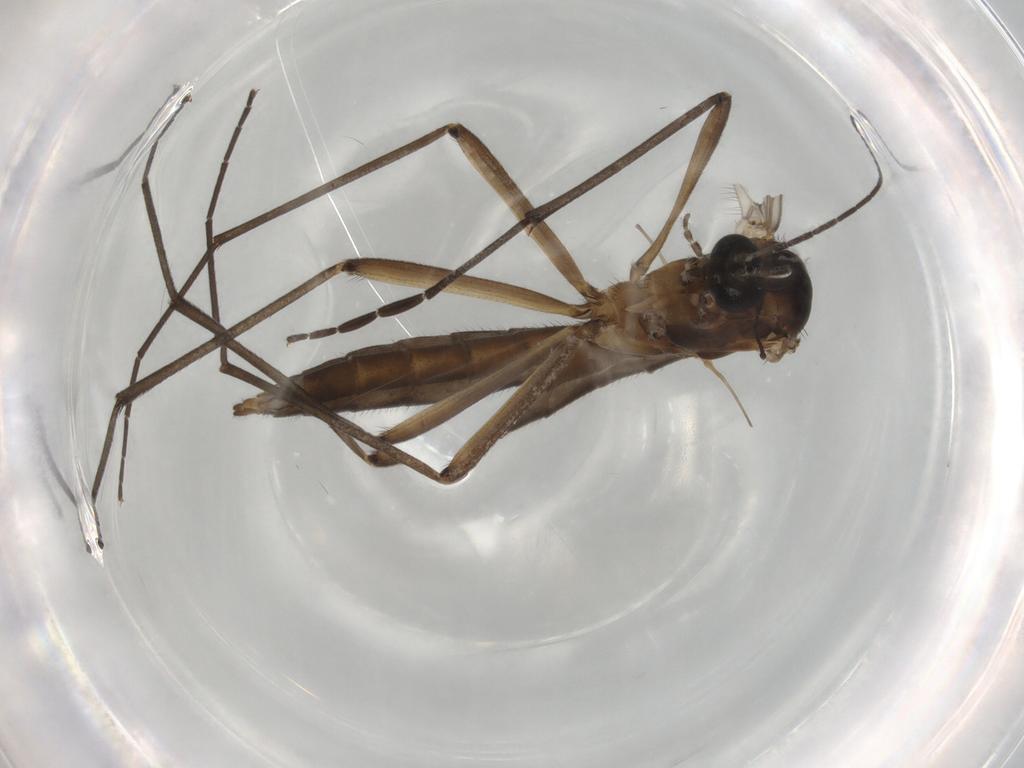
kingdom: Animalia
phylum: Arthropoda
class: Insecta
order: Diptera
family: Bolitophilidae
